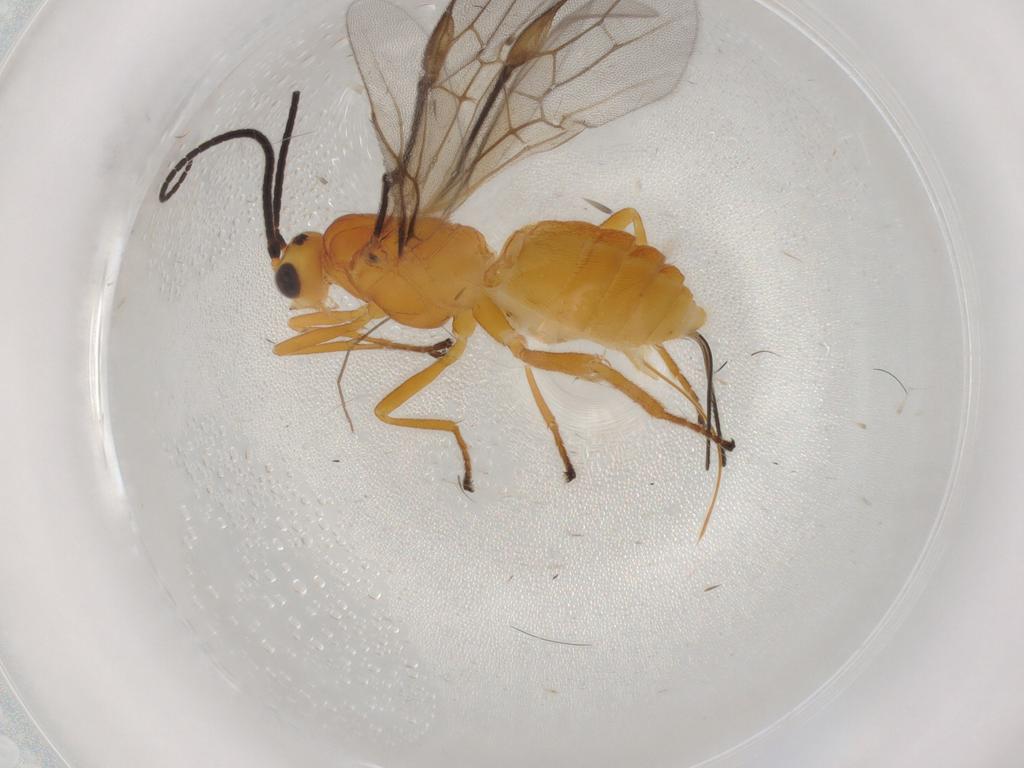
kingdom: Animalia
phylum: Arthropoda
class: Insecta
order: Hymenoptera
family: Braconidae
